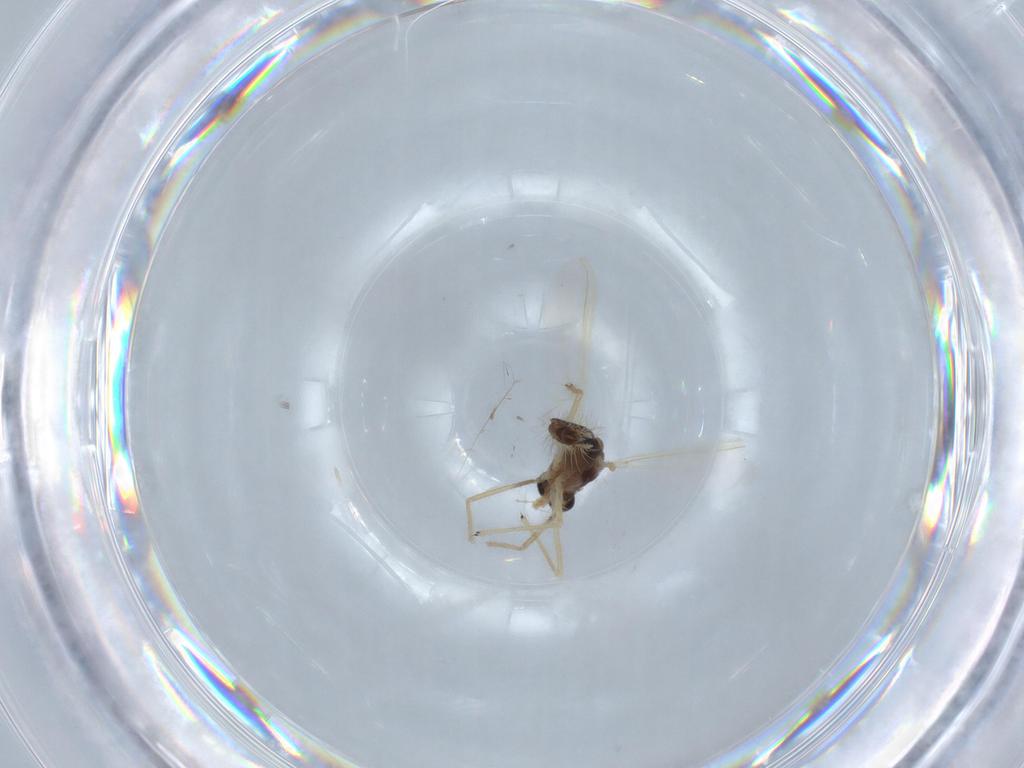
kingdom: Animalia
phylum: Arthropoda
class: Insecta
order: Diptera
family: Chironomidae
